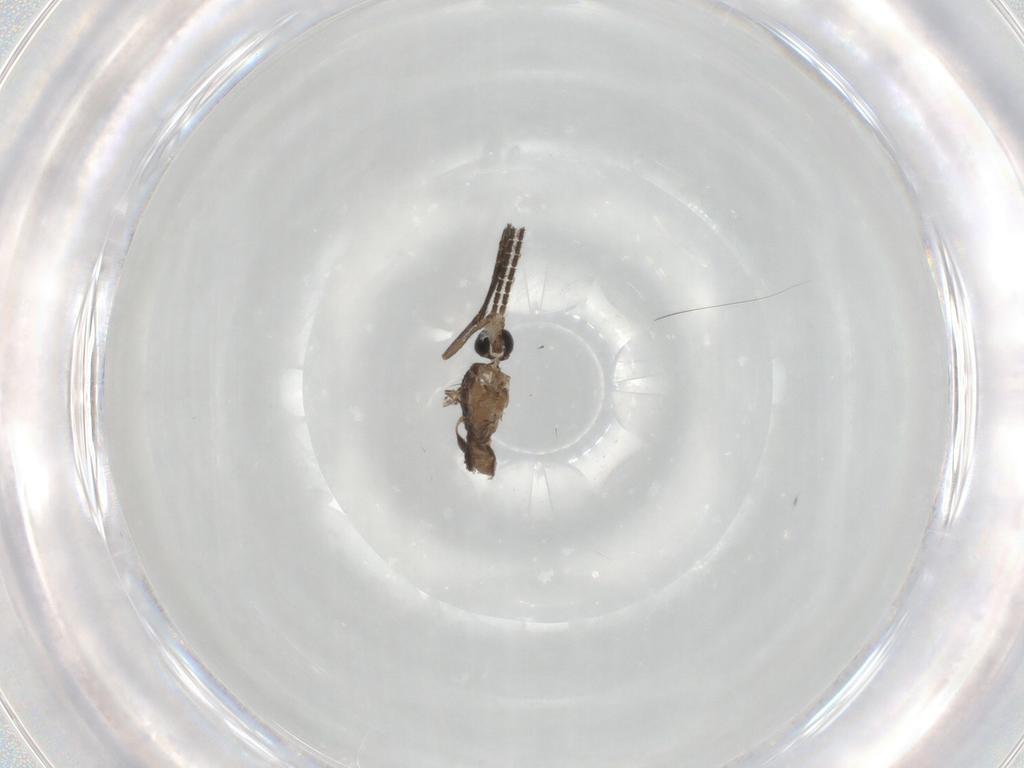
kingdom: Animalia
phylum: Arthropoda
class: Insecta
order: Diptera
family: Sciaridae
